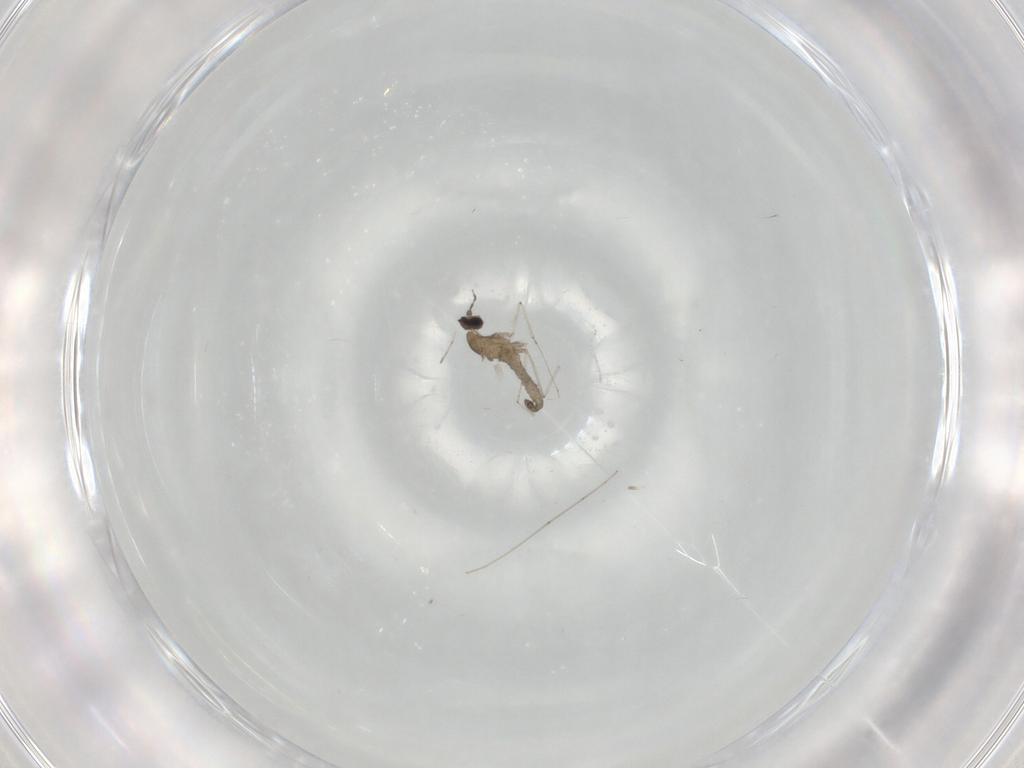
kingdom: Animalia
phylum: Arthropoda
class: Insecta
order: Diptera
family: Cecidomyiidae
